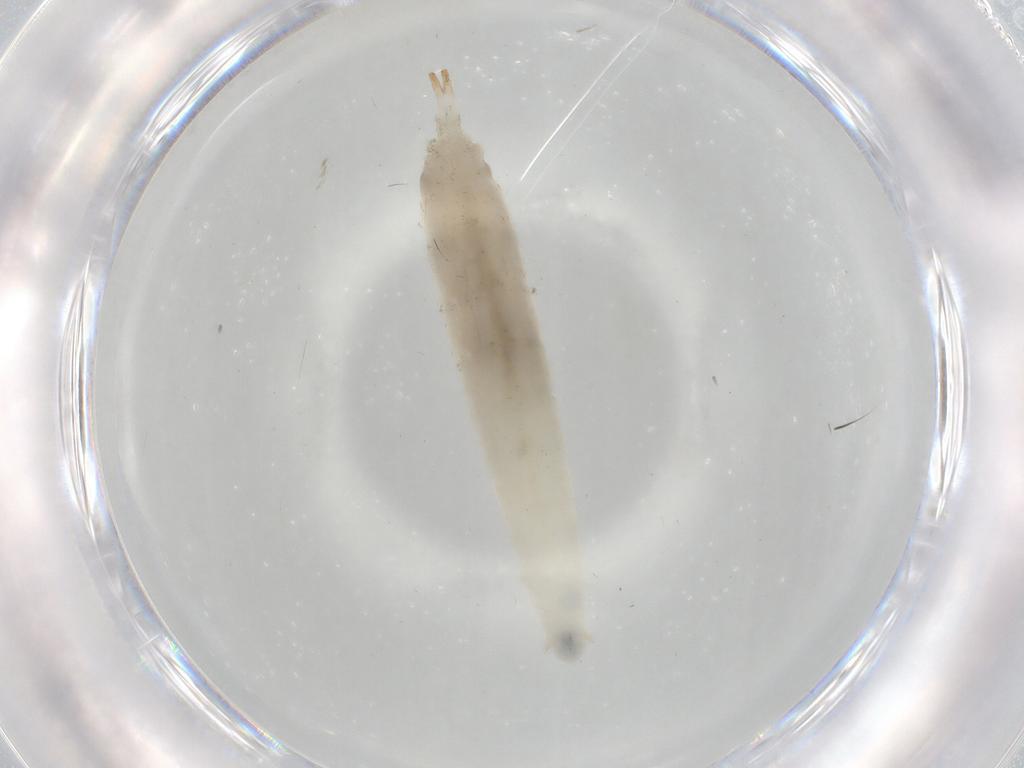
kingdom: Animalia
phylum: Arthropoda
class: Insecta
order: Diptera
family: Drosophilidae
